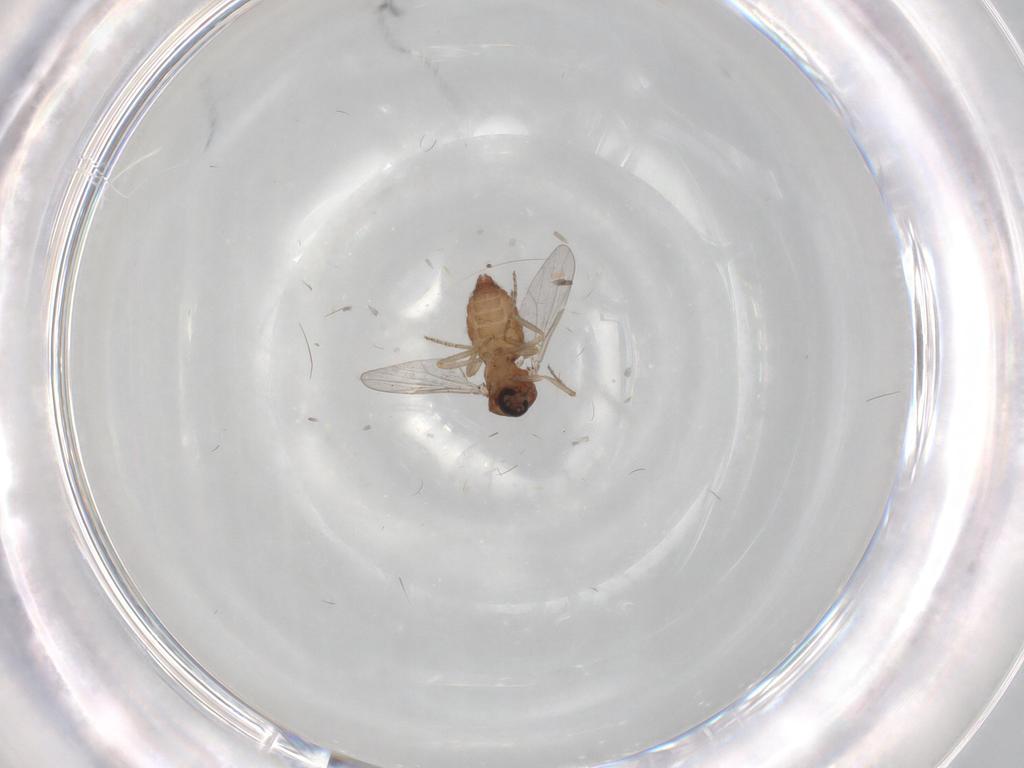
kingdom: Animalia
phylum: Arthropoda
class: Insecta
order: Diptera
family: Ceratopogonidae
